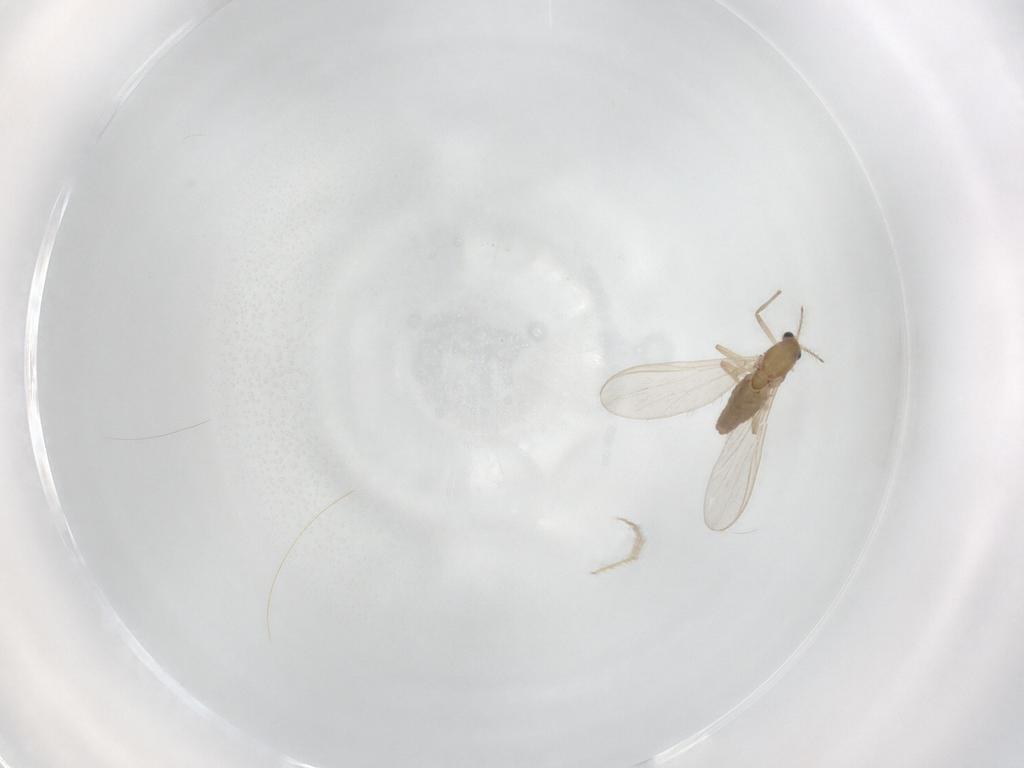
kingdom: Animalia
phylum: Arthropoda
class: Insecta
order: Diptera
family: Chironomidae
